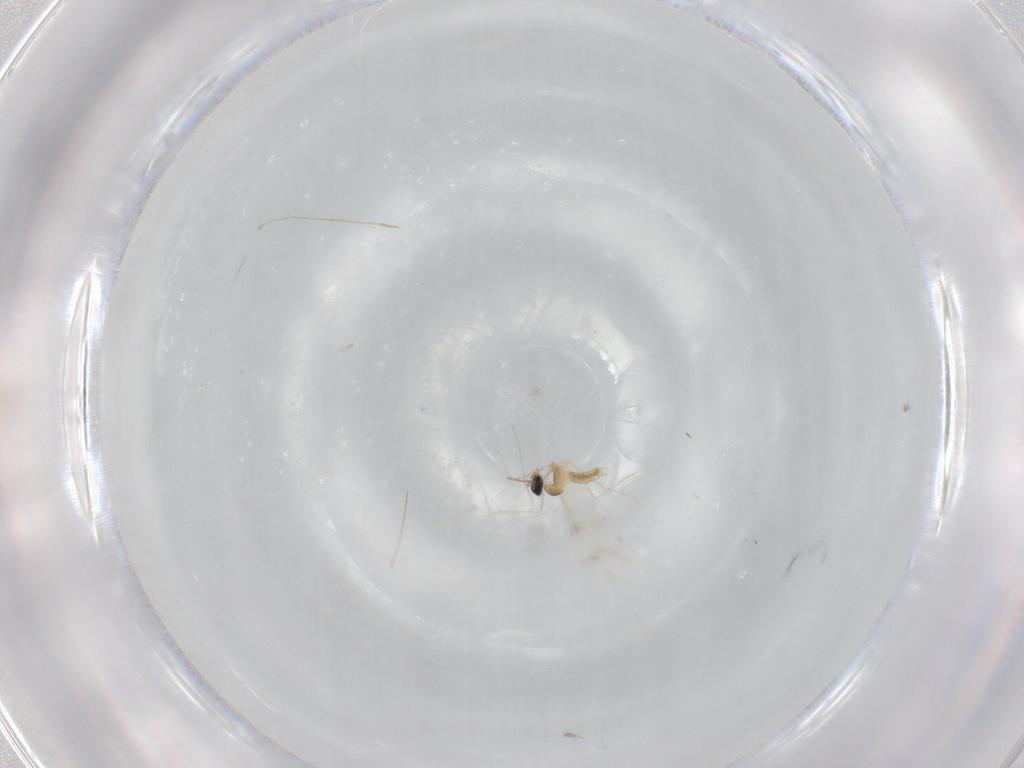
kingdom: Animalia
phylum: Arthropoda
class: Insecta
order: Diptera
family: Cecidomyiidae
